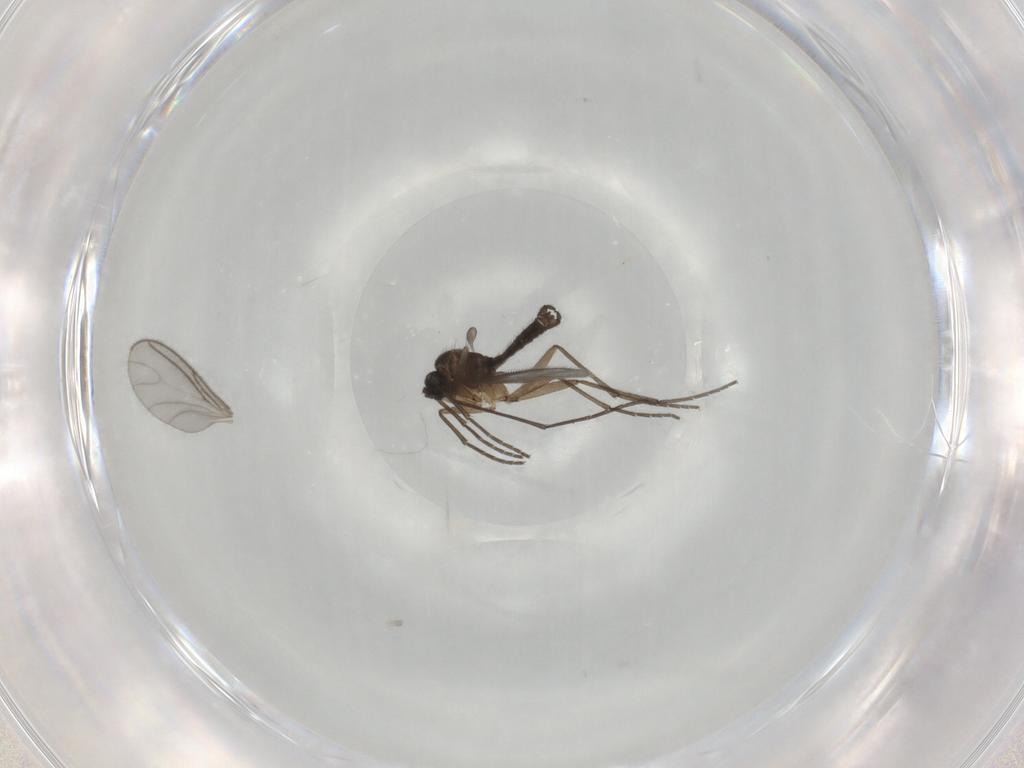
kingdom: Animalia
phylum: Arthropoda
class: Insecta
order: Diptera
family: Sciaridae
